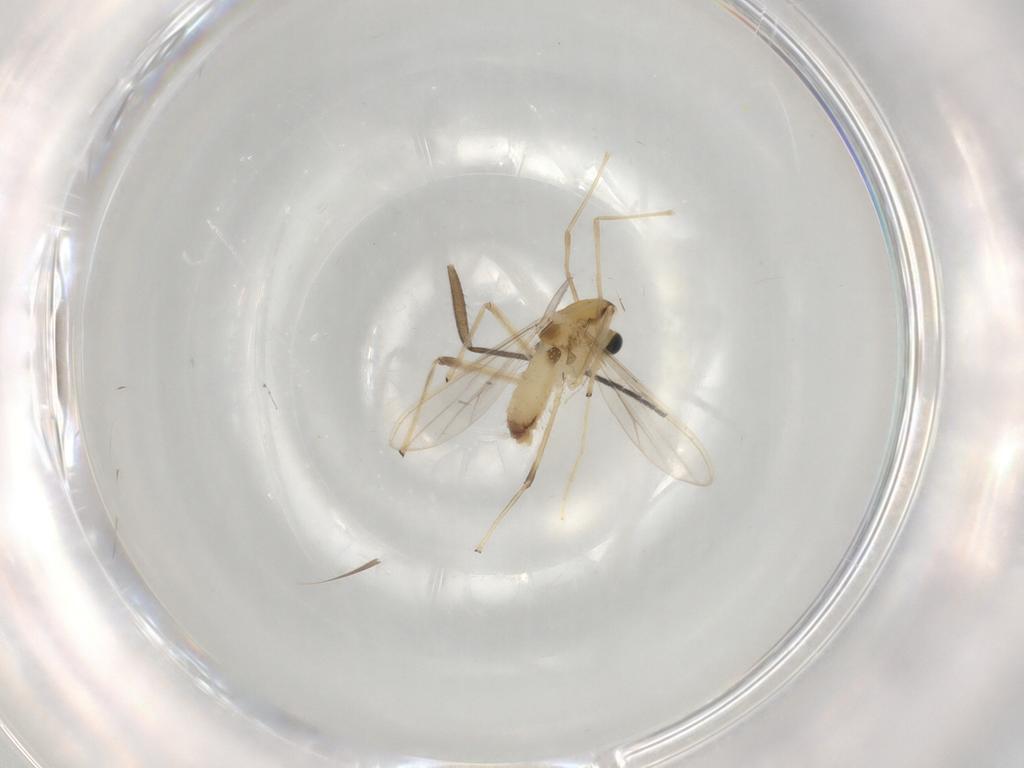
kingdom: Animalia
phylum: Arthropoda
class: Insecta
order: Diptera
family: Chironomidae
